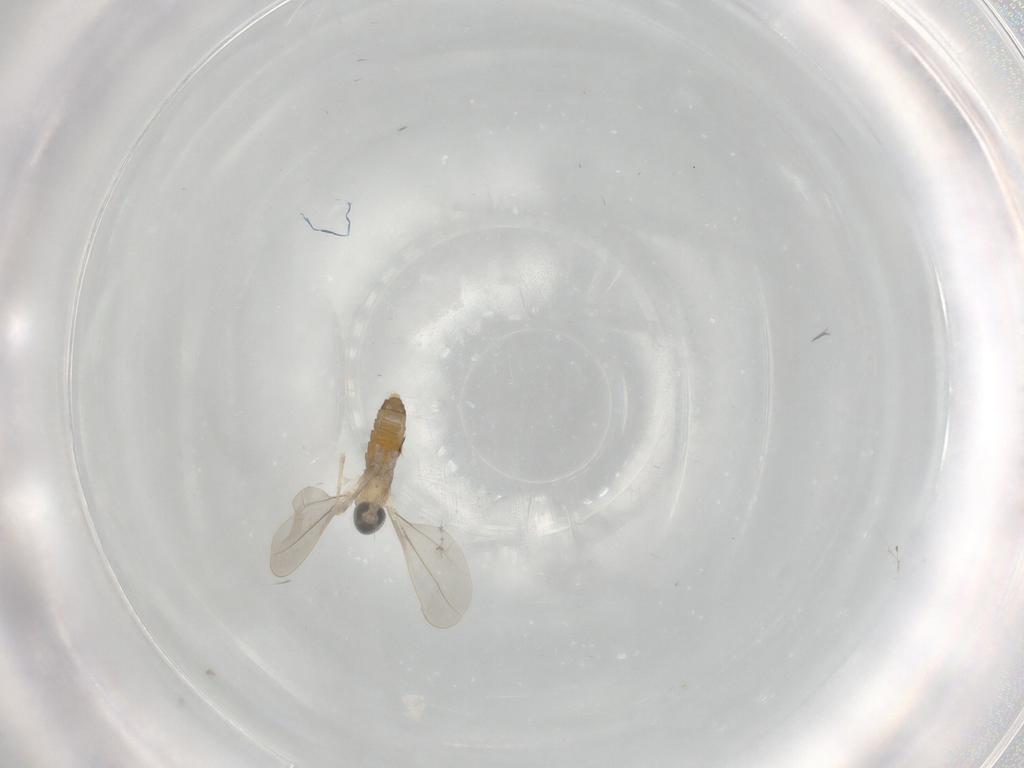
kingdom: Animalia
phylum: Arthropoda
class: Insecta
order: Diptera
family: Cecidomyiidae
